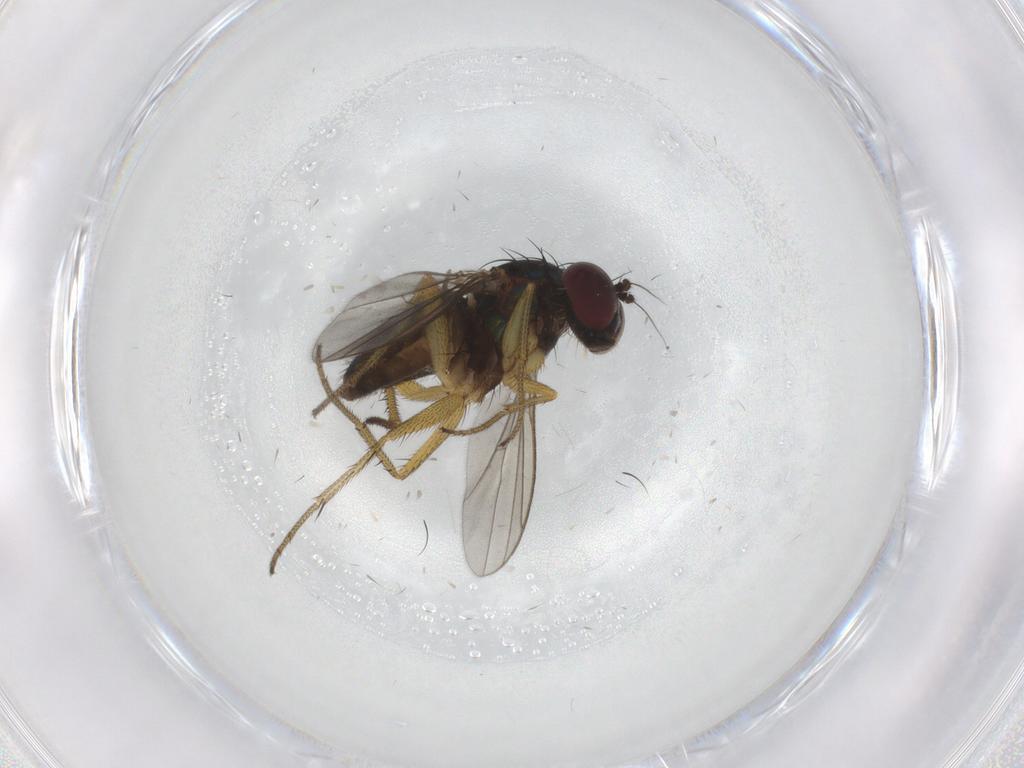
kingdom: Animalia
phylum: Arthropoda
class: Insecta
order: Diptera
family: Chironomidae
